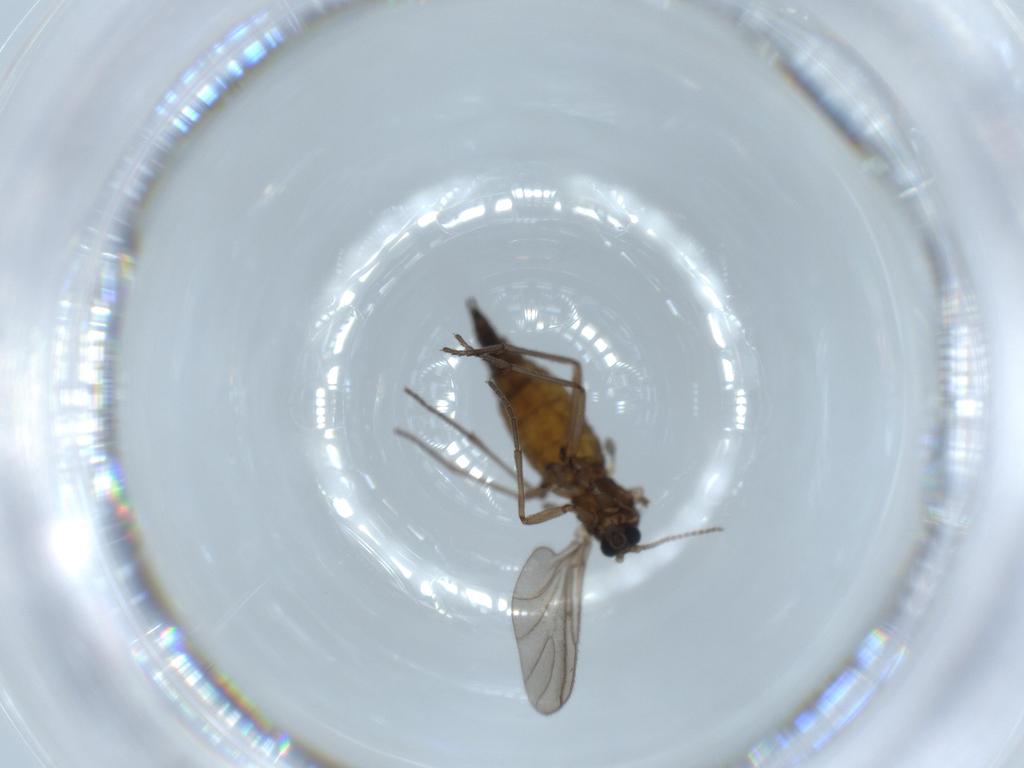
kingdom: Animalia
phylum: Arthropoda
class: Insecta
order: Diptera
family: Sciaridae
